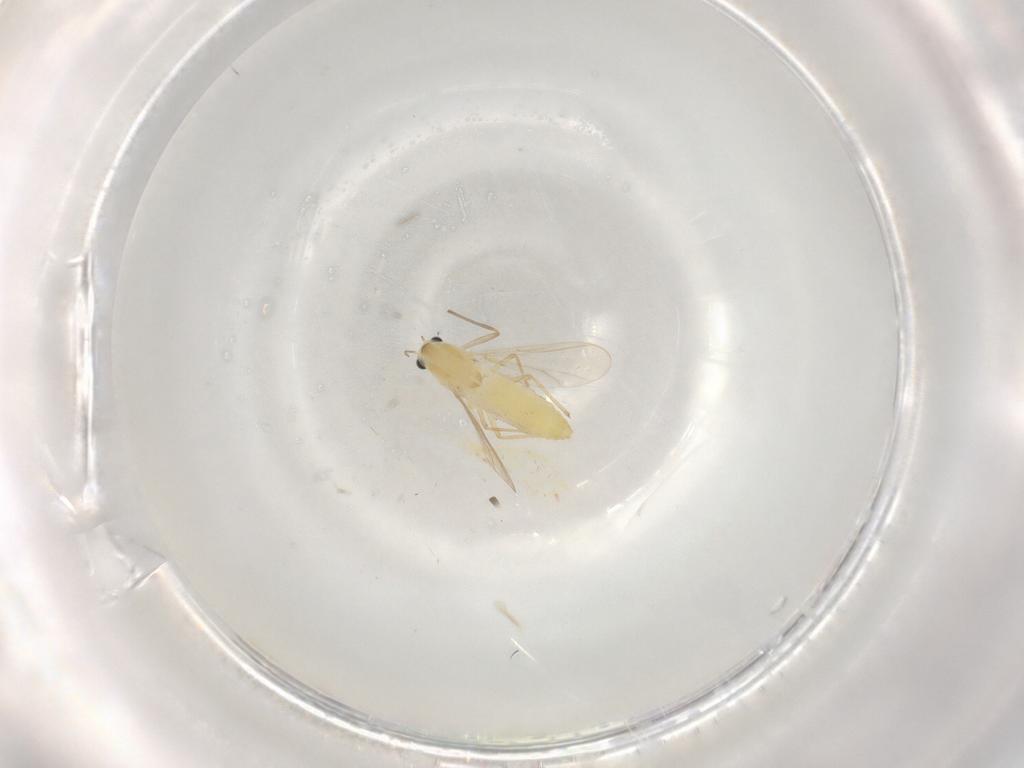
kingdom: Animalia
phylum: Arthropoda
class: Insecta
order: Diptera
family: Chironomidae
